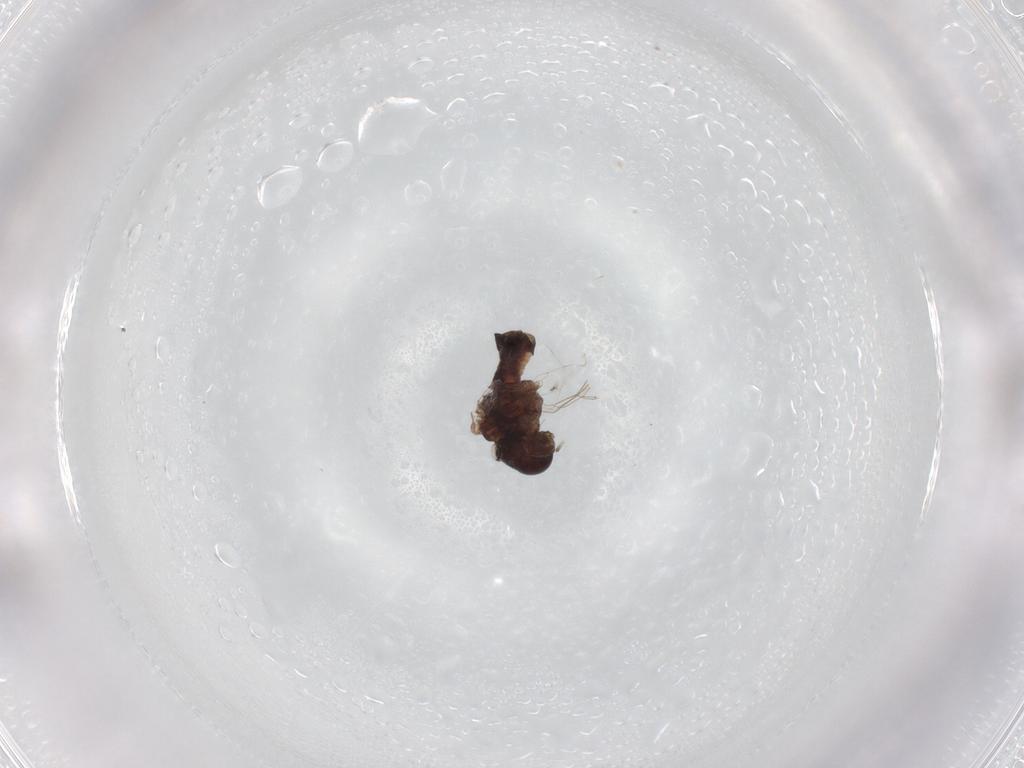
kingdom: Animalia
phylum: Arthropoda
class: Insecta
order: Psocodea
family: Lachesillidae
